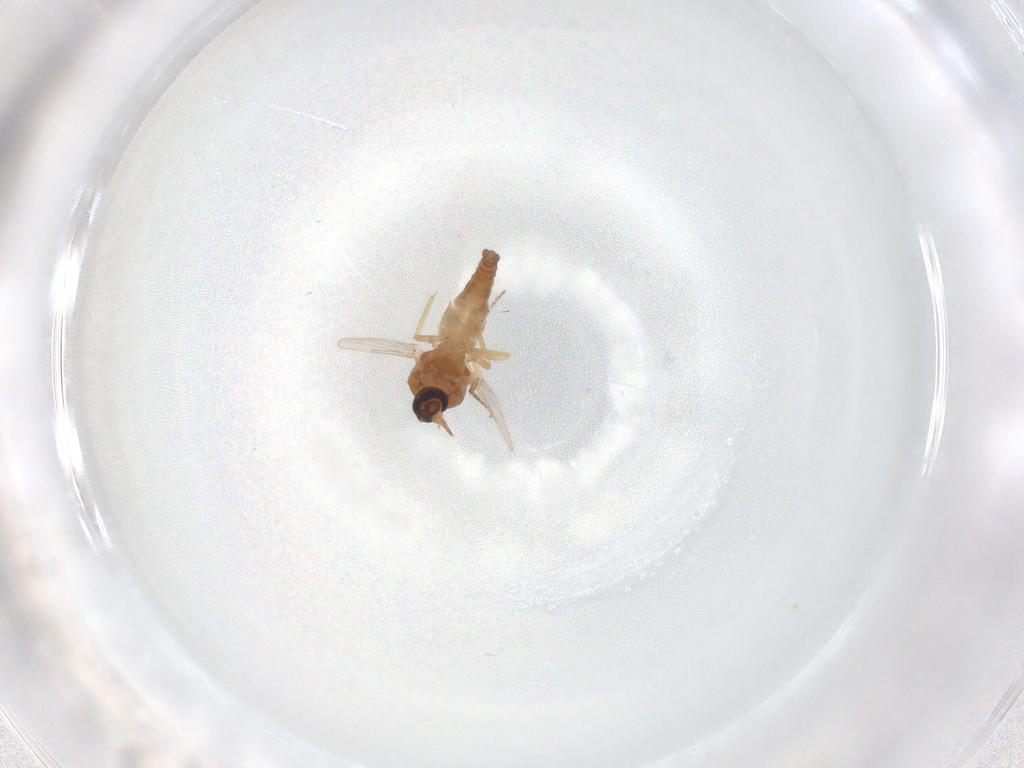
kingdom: Animalia
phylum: Arthropoda
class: Insecta
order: Diptera
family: Ceratopogonidae
